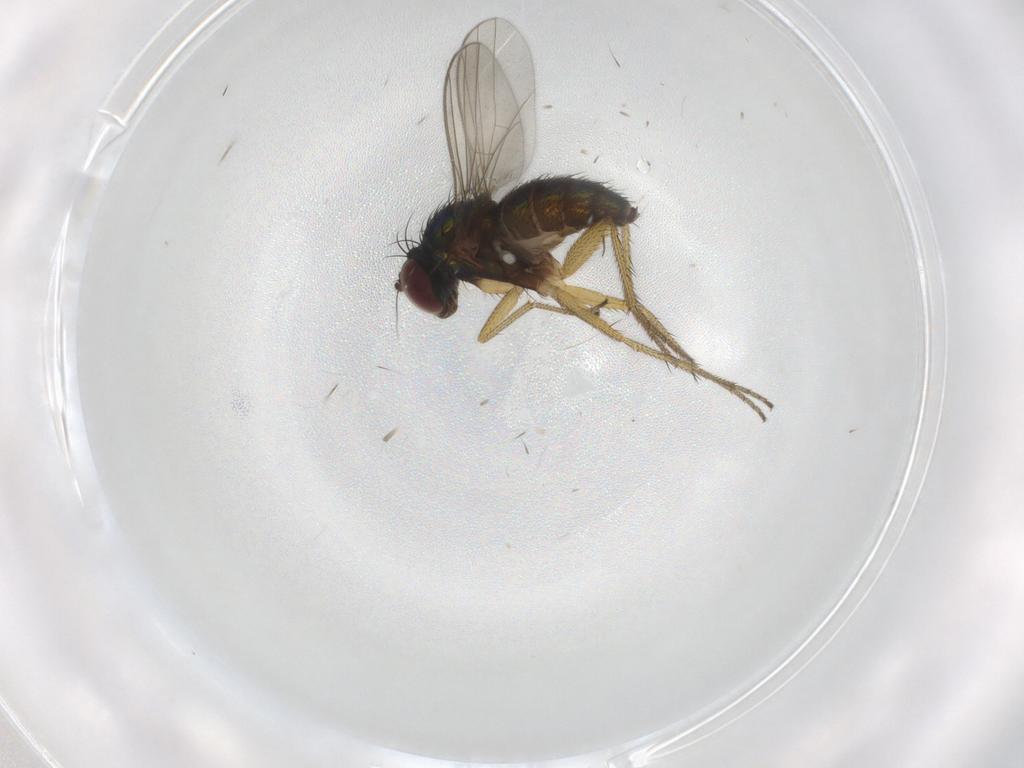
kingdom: Animalia
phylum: Arthropoda
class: Insecta
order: Diptera
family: Dolichopodidae
